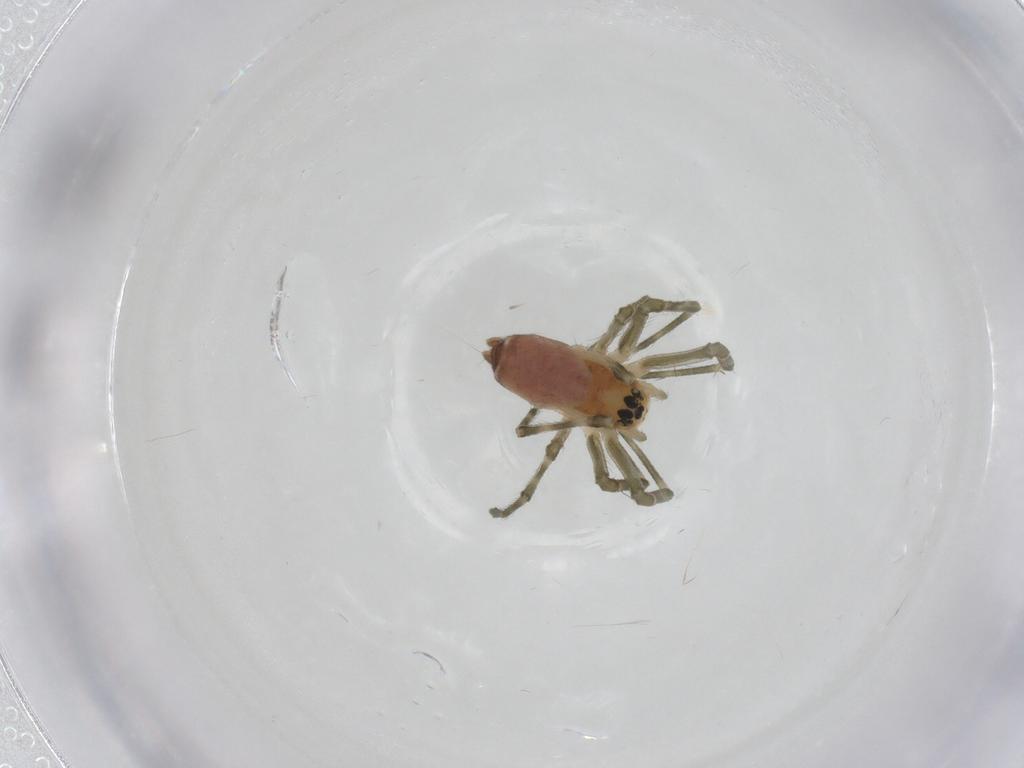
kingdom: Animalia
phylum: Arthropoda
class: Arachnida
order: Araneae
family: Linyphiidae
